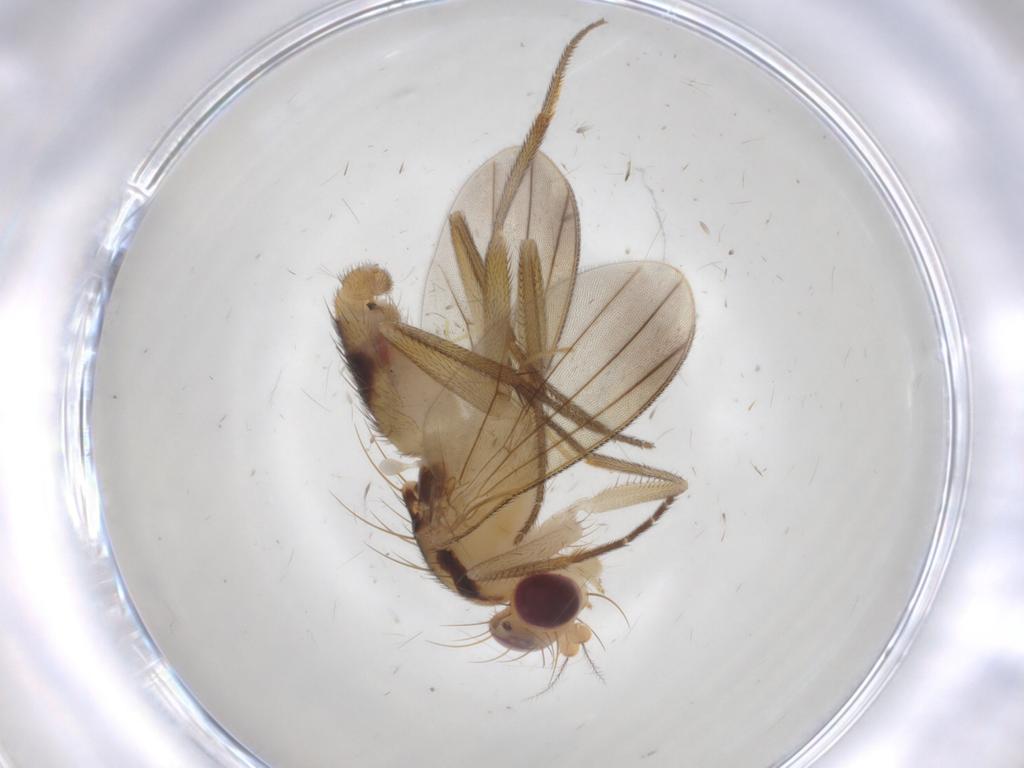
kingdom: Animalia
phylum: Arthropoda
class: Insecta
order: Diptera
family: Clusiidae
